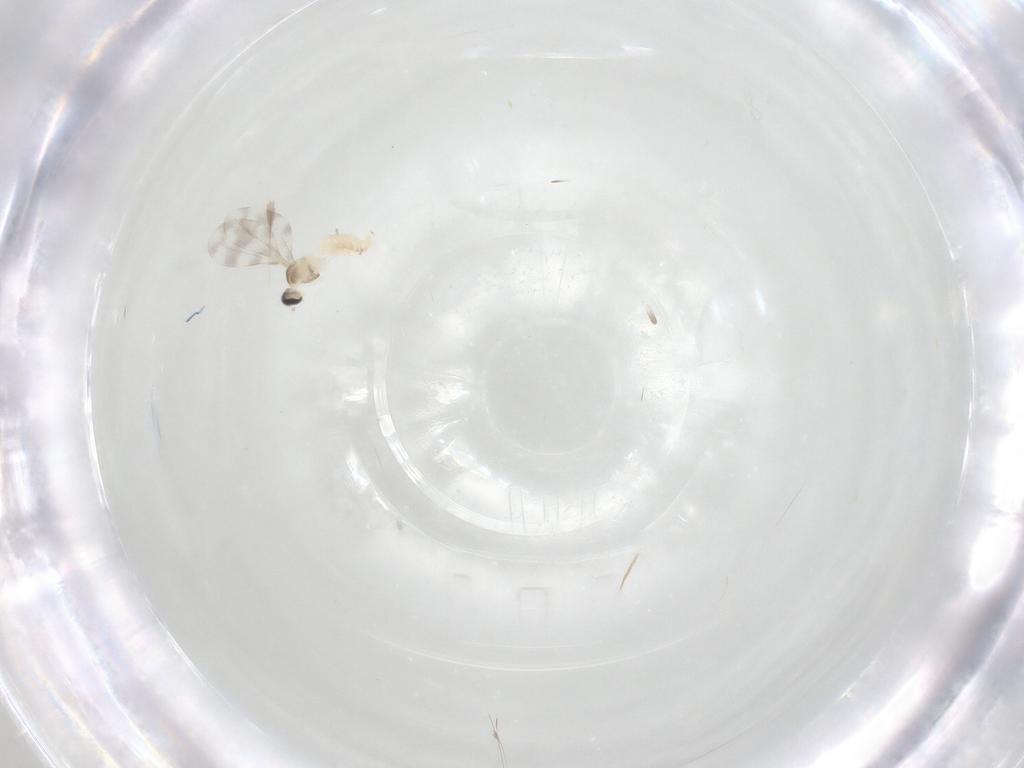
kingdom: Animalia
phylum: Arthropoda
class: Insecta
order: Diptera
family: Cecidomyiidae
